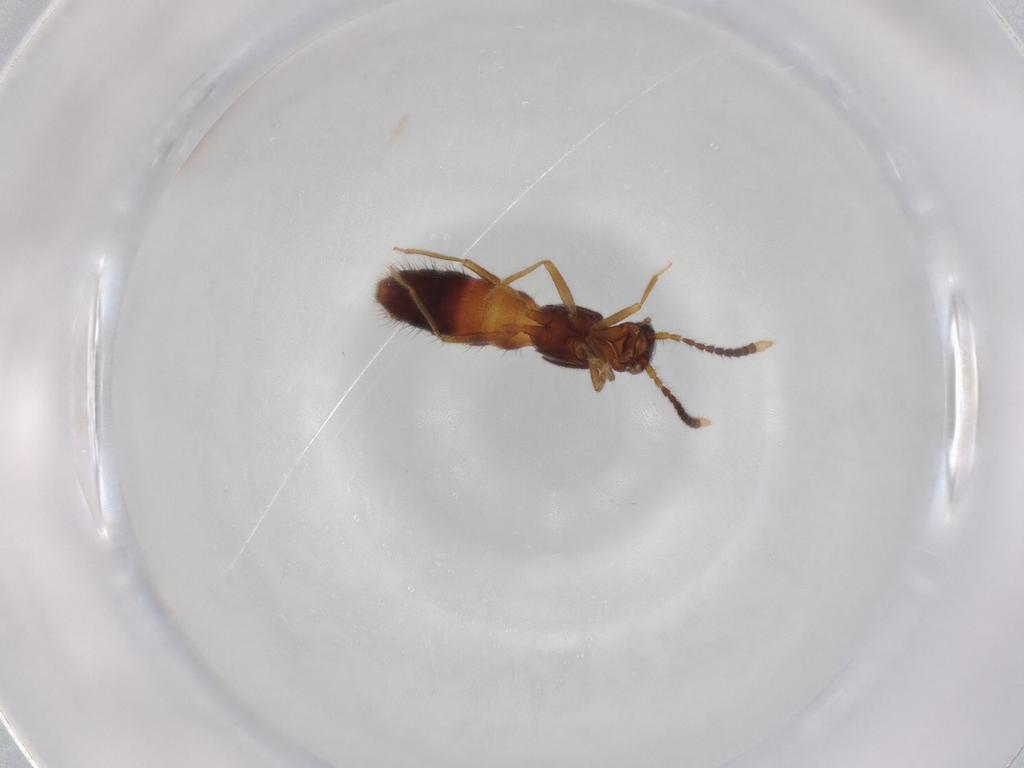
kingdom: Animalia
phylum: Arthropoda
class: Insecta
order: Coleoptera
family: Staphylinidae
